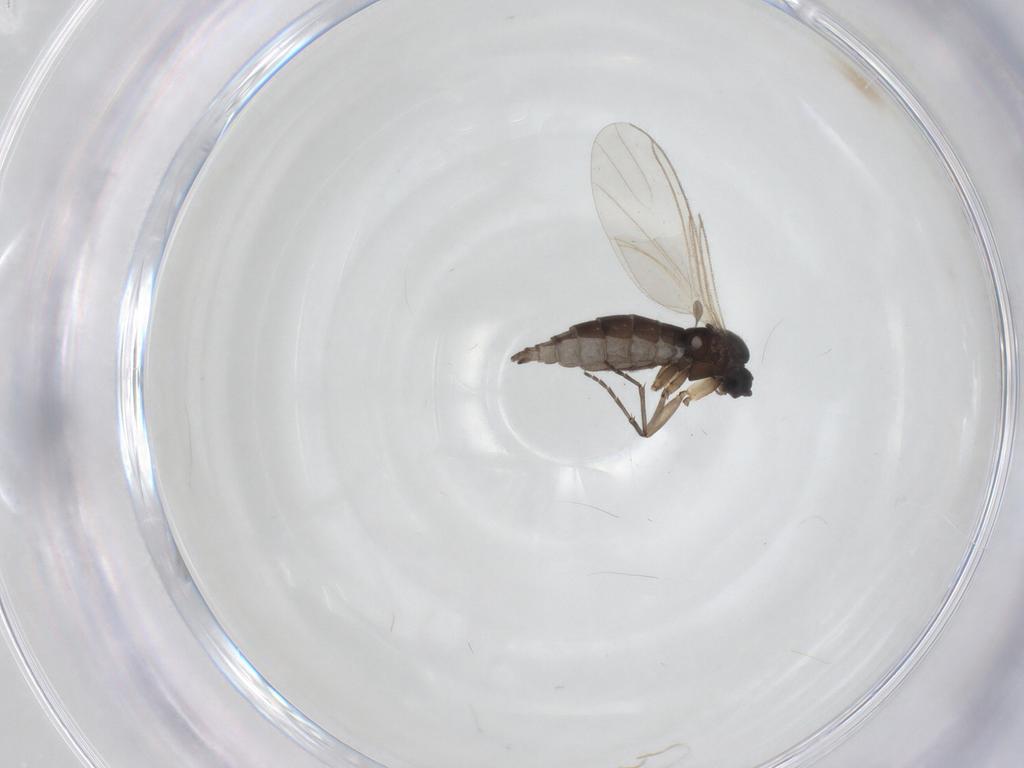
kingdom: Animalia
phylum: Arthropoda
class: Insecta
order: Diptera
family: Sciaridae
